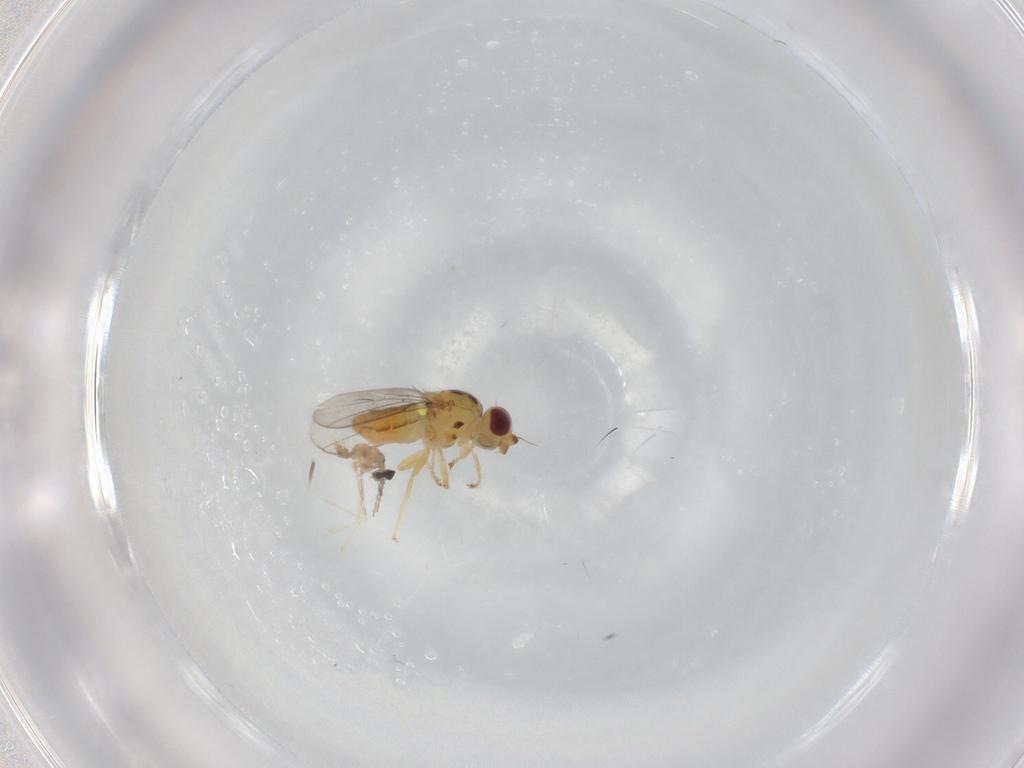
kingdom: Animalia
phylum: Arthropoda
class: Insecta
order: Diptera
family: Cecidomyiidae
